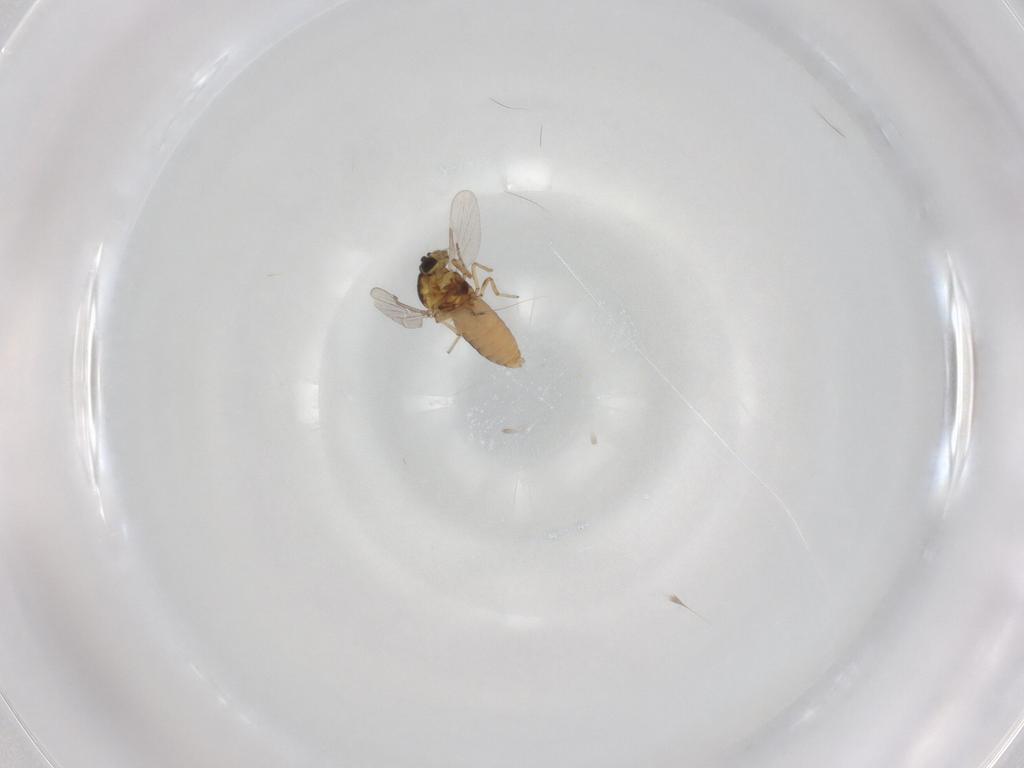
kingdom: Animalia
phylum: Arthropoda
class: Insecta
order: Diptera
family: Ceratopogonidae
